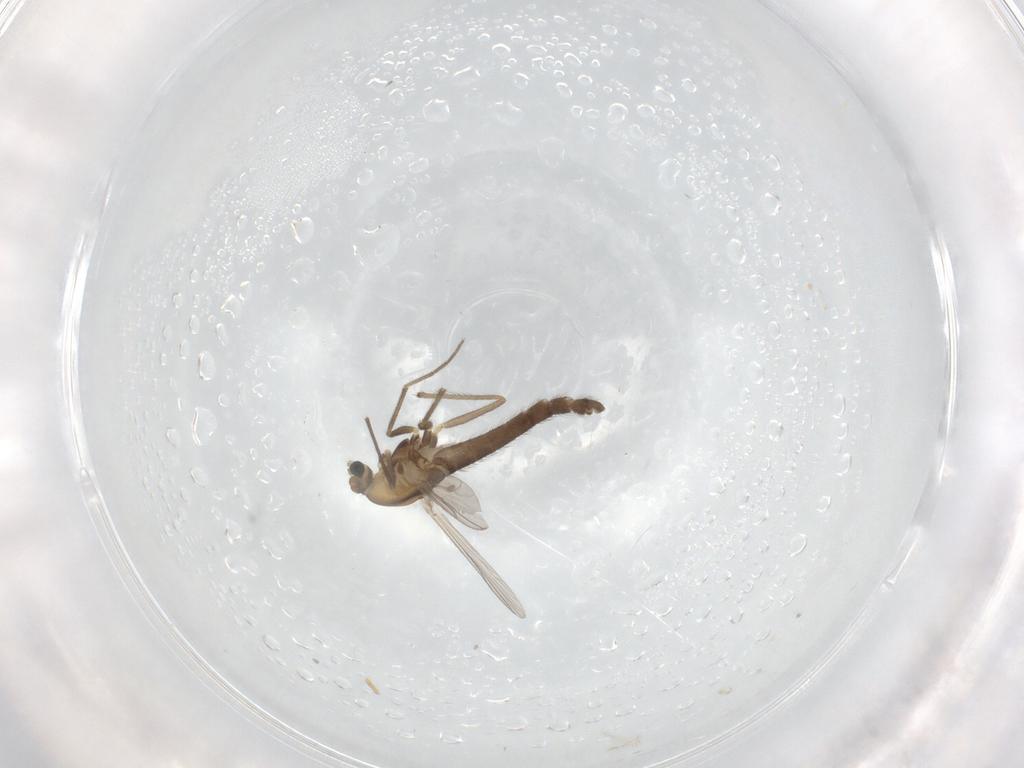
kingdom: Animalia
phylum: Arthropoda
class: Insecta
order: Diptera
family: Chironomidae
